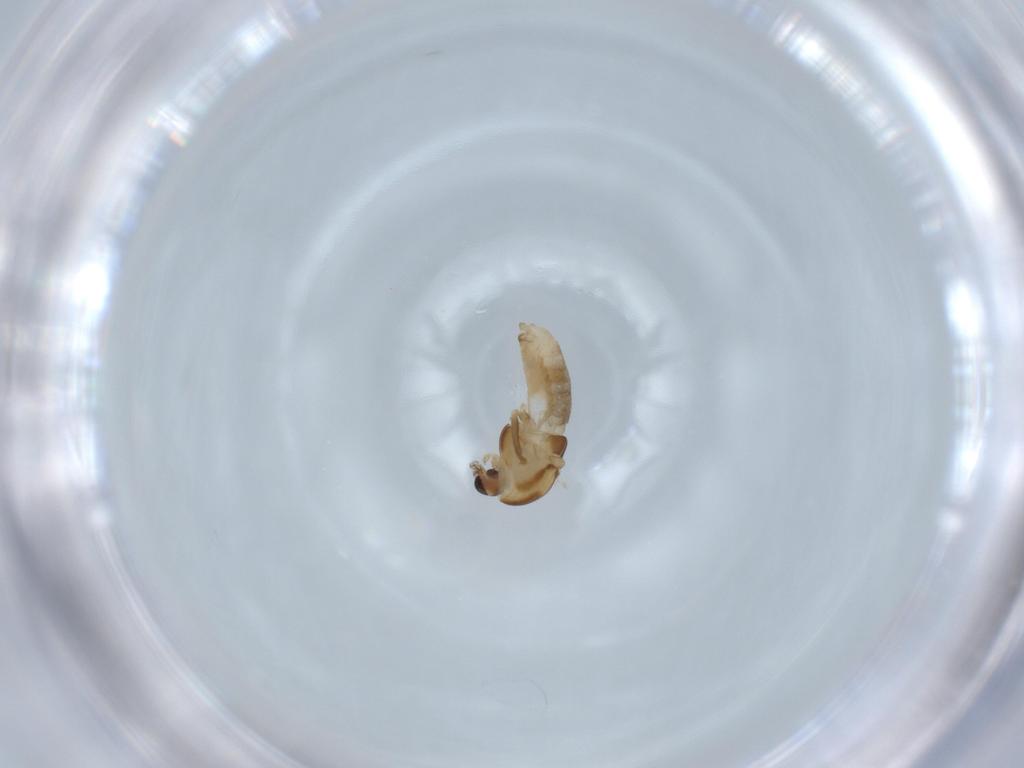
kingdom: Animalia
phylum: Arthropoda
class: Insecta
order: Diptera
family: Chironomidae
